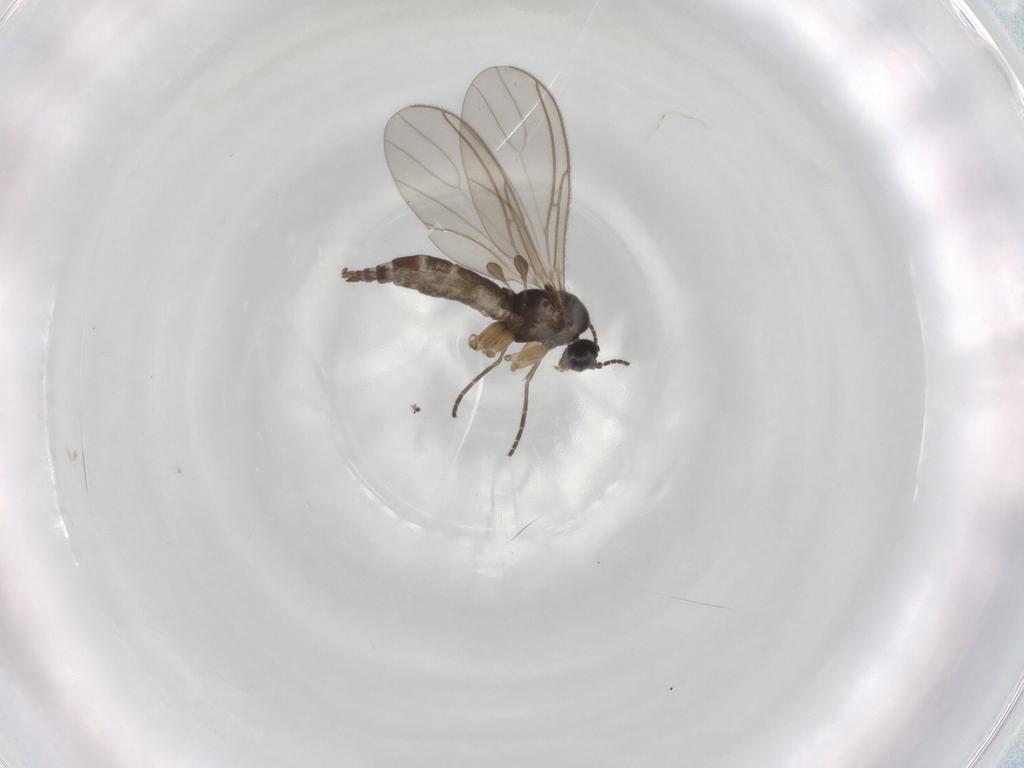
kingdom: Animalia
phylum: Arthropoda
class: Insecta
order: Diptera
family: Sciaridae
